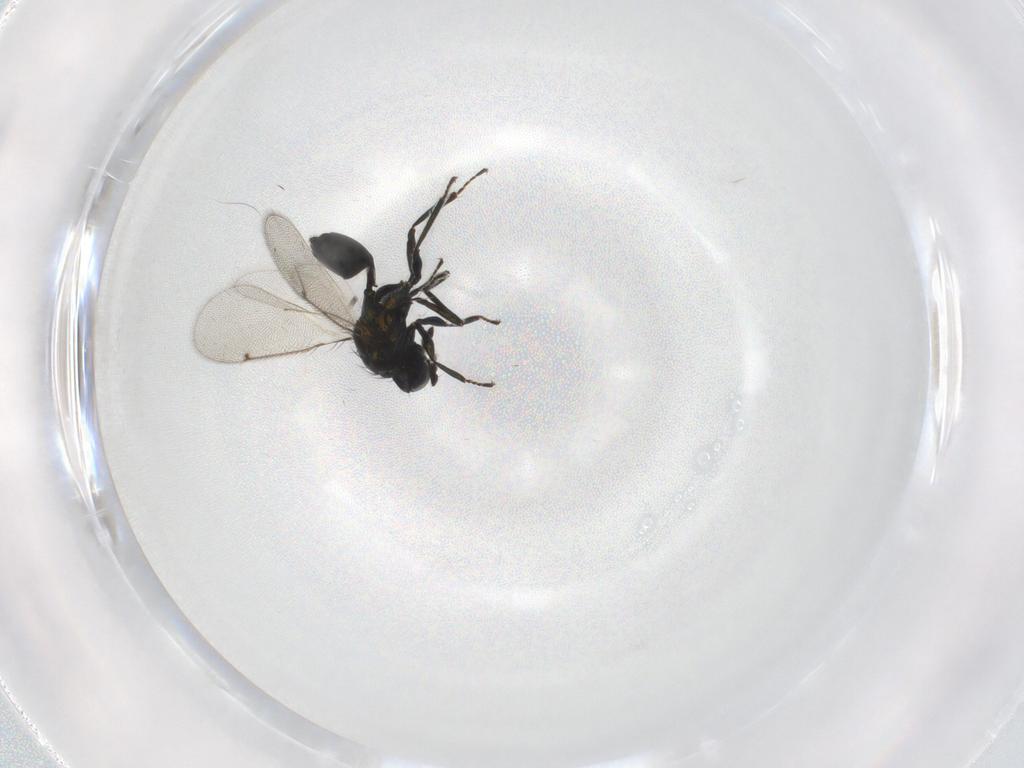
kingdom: Animalia
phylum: Arthropoda
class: Insecta
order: Hymenoptera
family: Eulophidae
